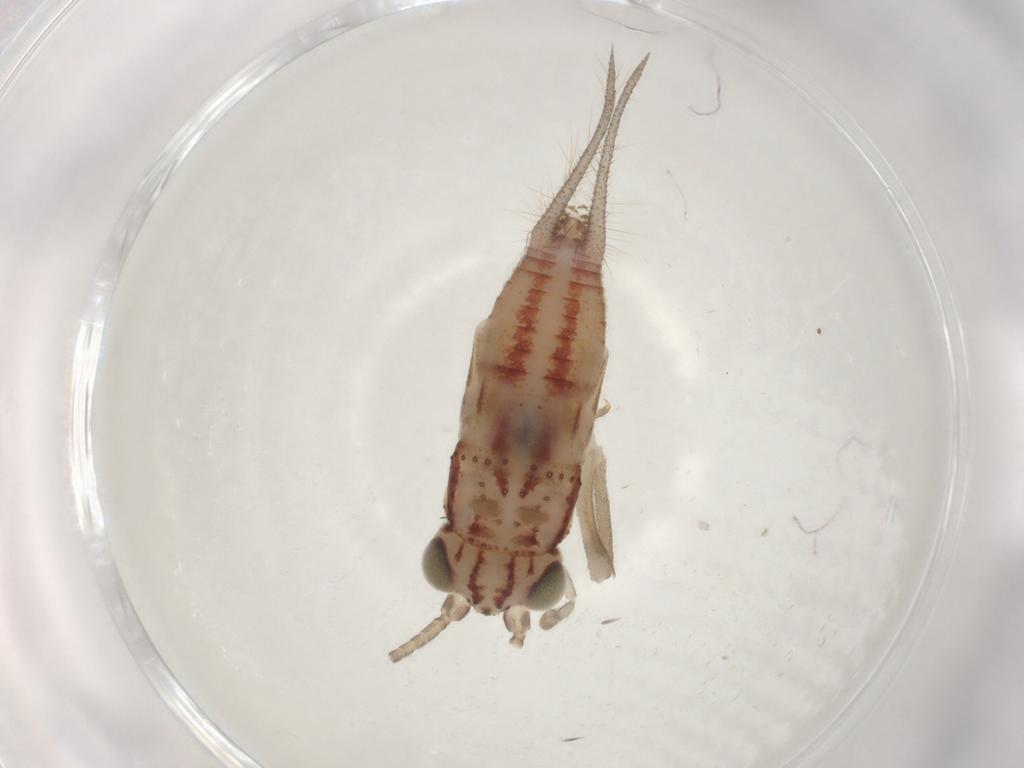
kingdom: Animalia
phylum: Arthropoda
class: Insecta
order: Orthoptera
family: Trigonidiidae
